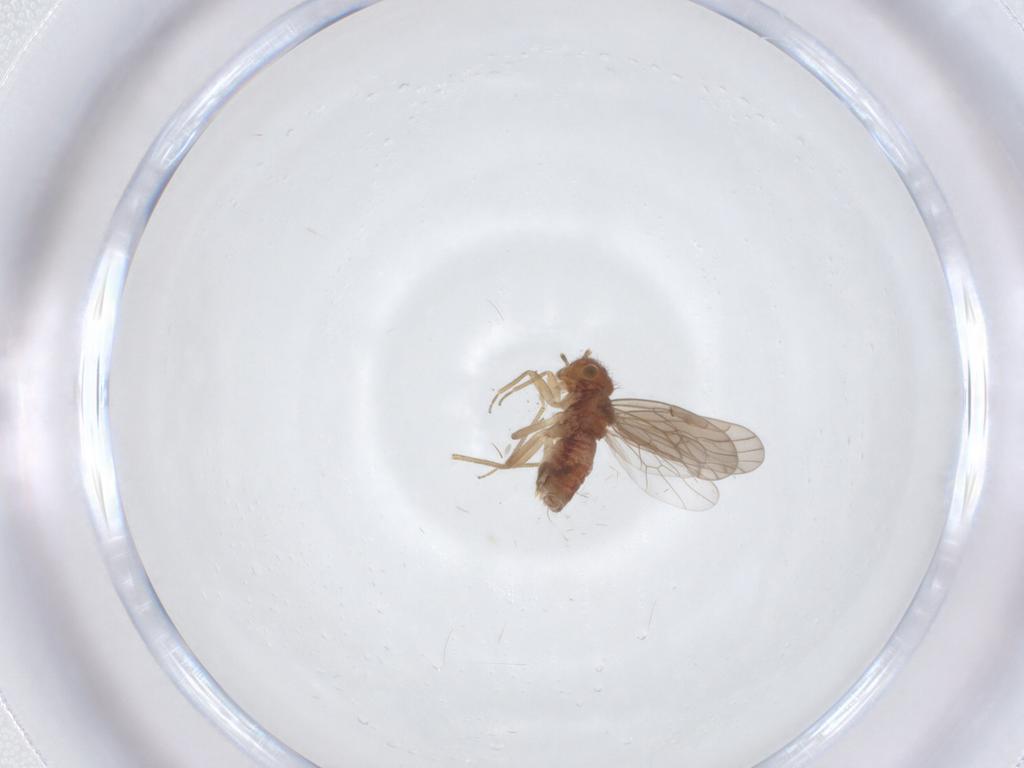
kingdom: Animalia
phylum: Arthropoda
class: Insecta
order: Psocodea
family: Ectopsocidae
